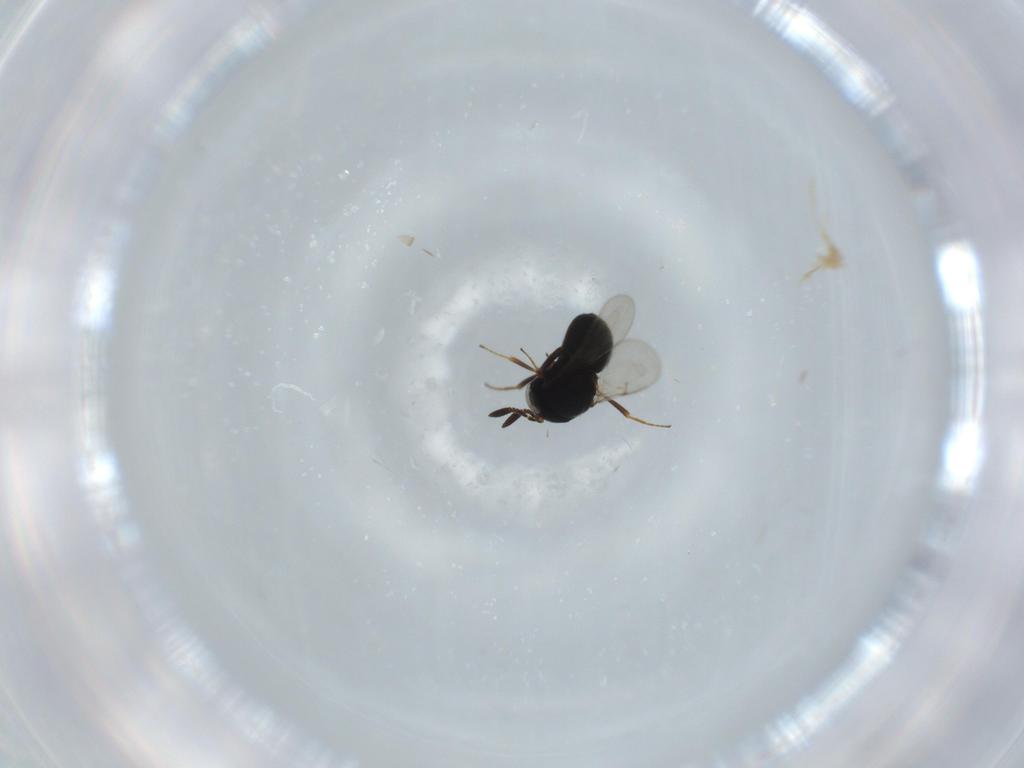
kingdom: Animalia
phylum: Arthropoda
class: Insecta
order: Hymenoptera
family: Scelionidae
